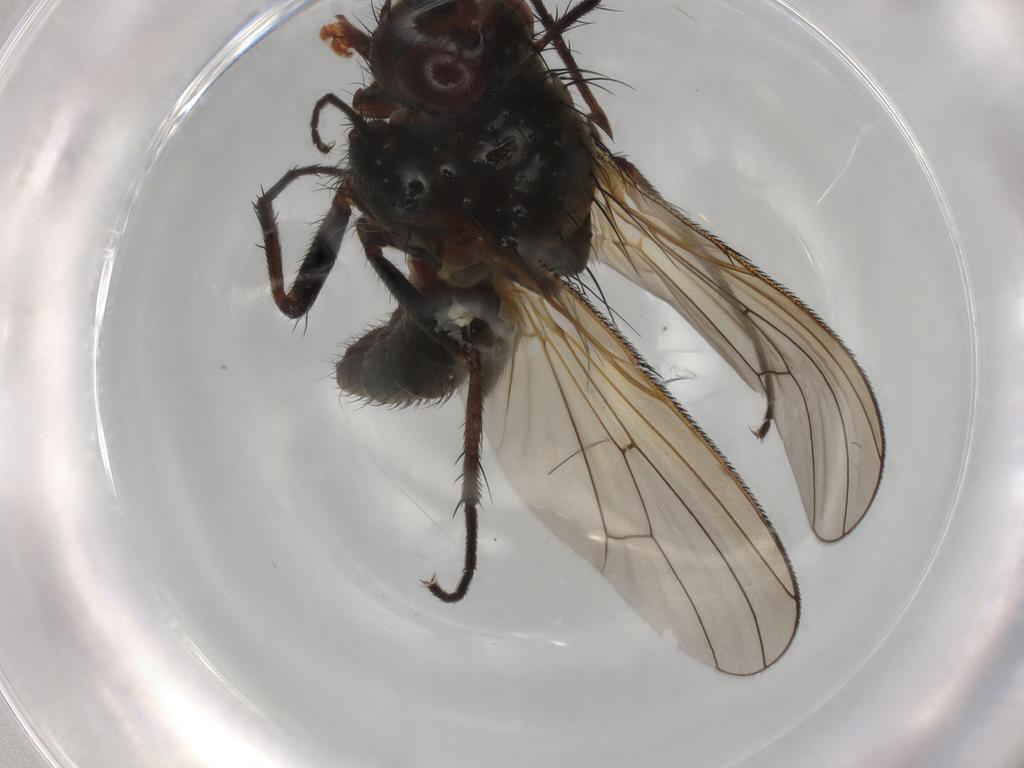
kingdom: Animalia
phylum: Arthropoda
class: Insecta
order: Diptera
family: Anthomyiidae
